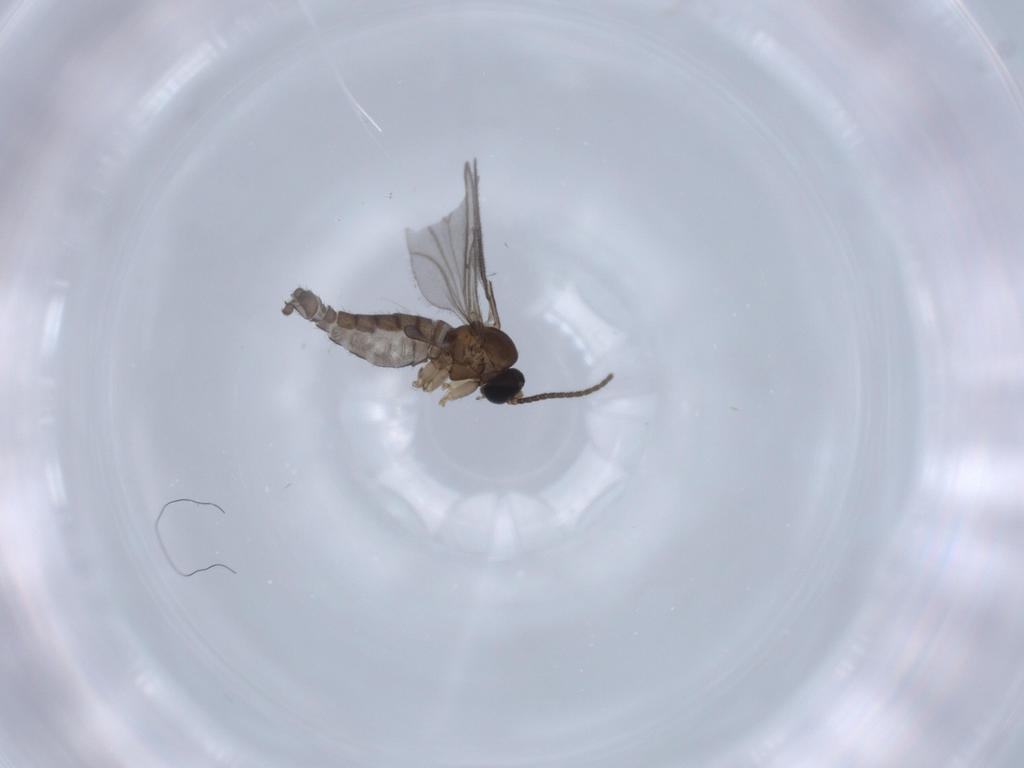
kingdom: Animalia
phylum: Arthropoda
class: Insecta
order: Diptera
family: Sciaridae
